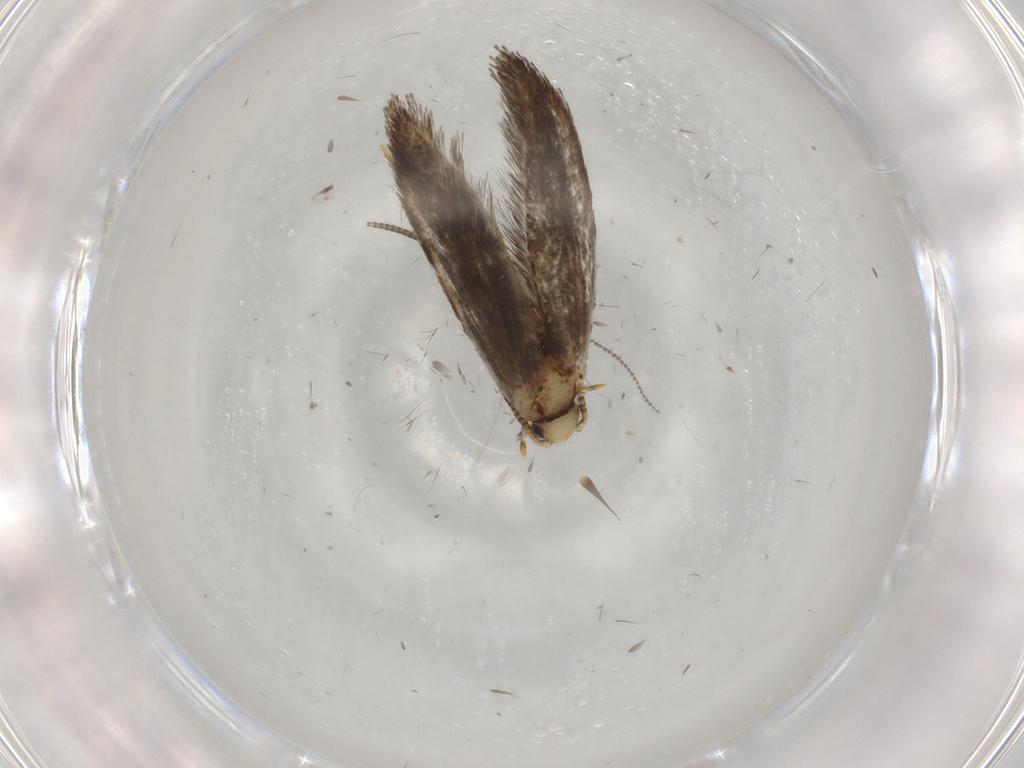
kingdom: Animalia
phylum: Arthropoda
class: Insecta
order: Lepidoptera
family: Tineidae
